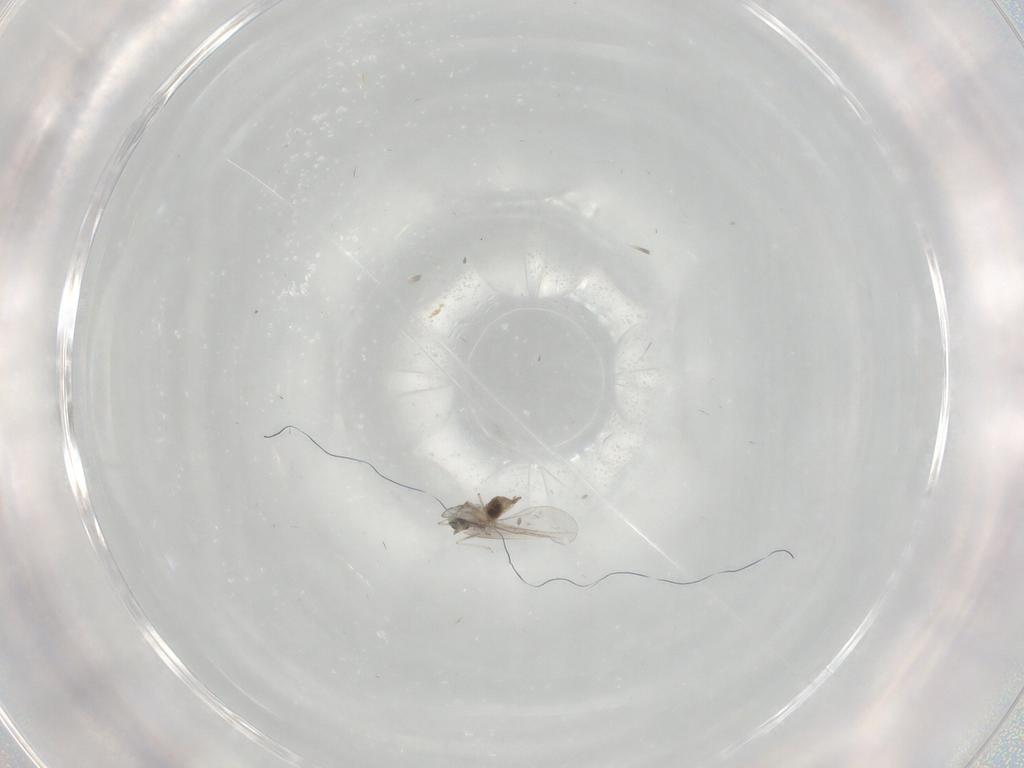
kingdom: Animalia
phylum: Arthropoda
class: Insecta
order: Diptera
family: Cecidomyiidae
